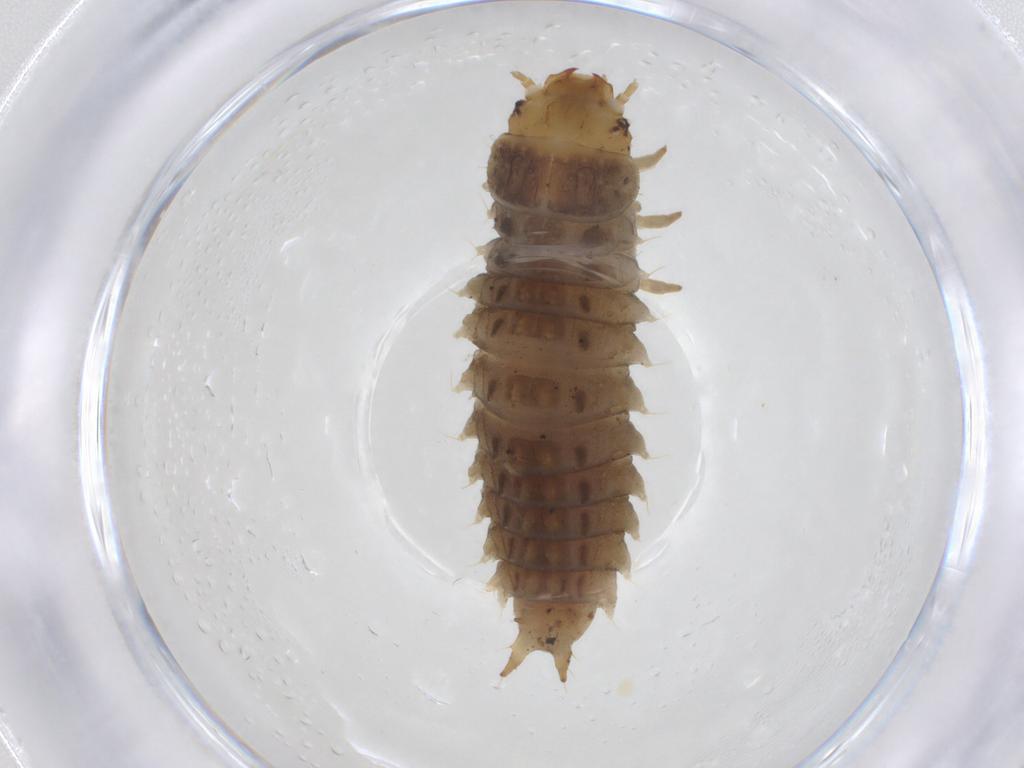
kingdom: Animalia
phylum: Arthropoda
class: Insecta
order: Coleoptera
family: Nitidulidae
